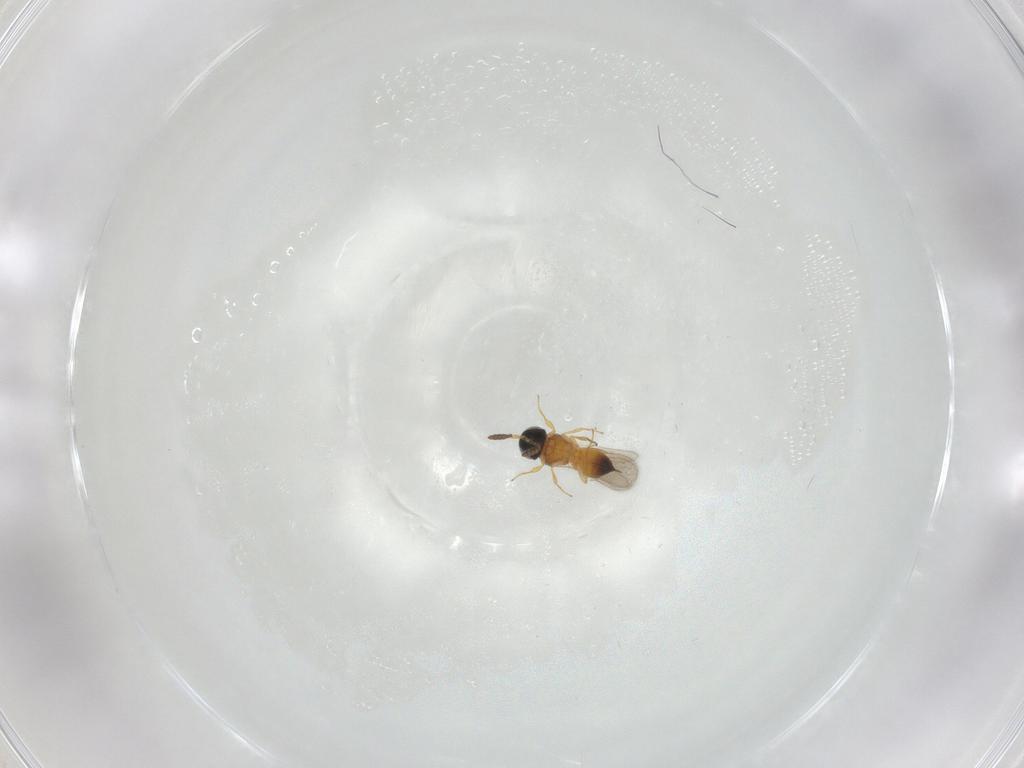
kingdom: Animalia
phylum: Arthropoda
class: Insecta
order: Hymenoptera
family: Scelionidae
